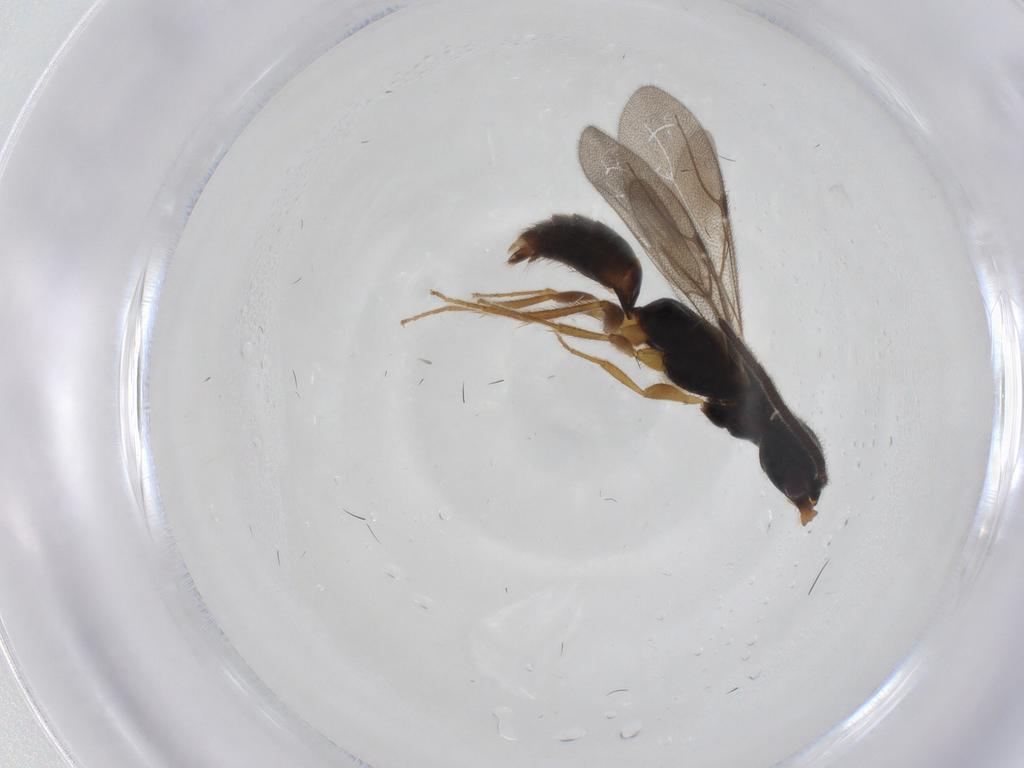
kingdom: Animalia
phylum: Arthropoda
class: Insecta
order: Hymenoptera
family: Bethylidae
